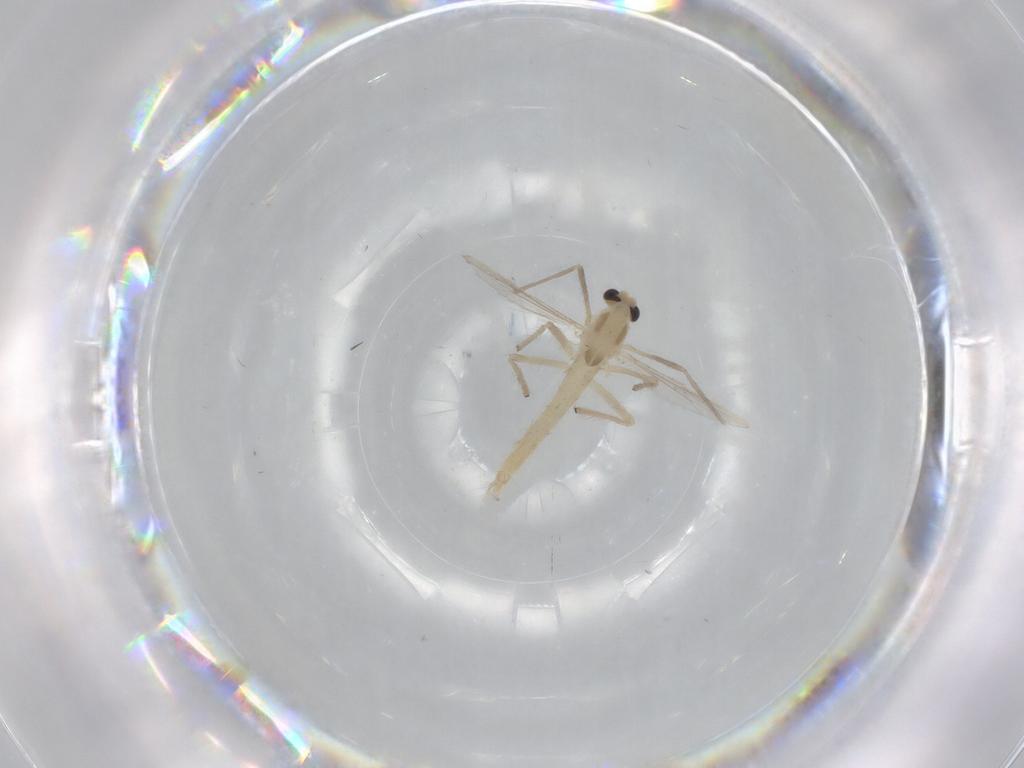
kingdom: Animalia
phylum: Arthropoda
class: Insecta
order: Diptera
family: Chironomidae
